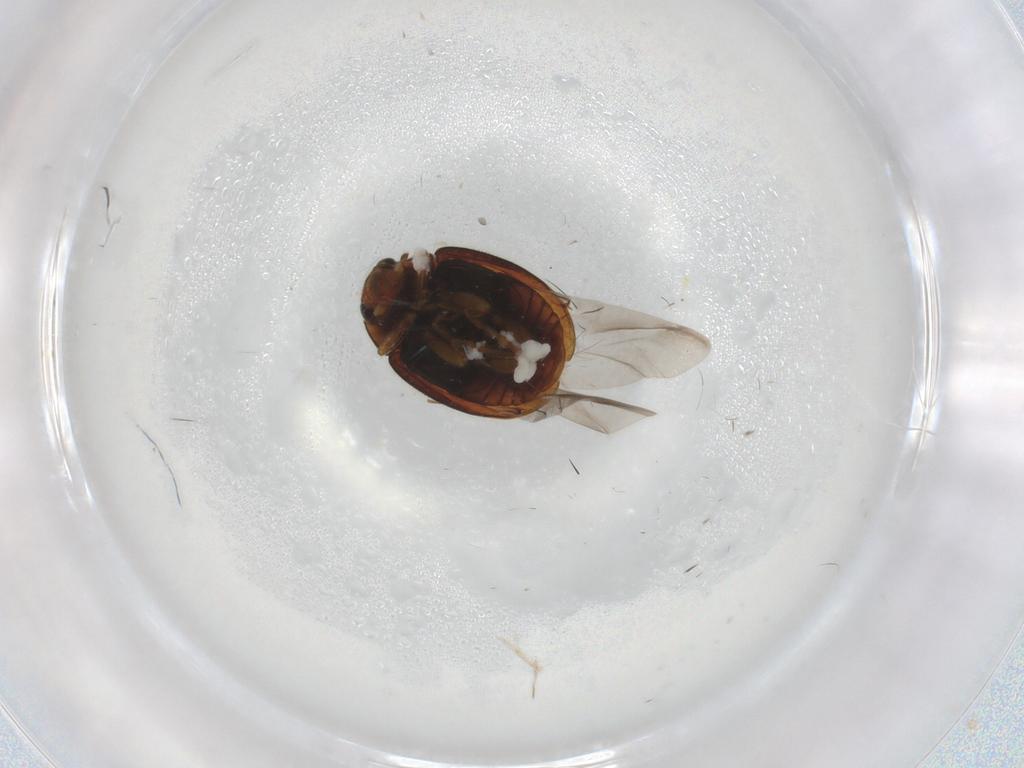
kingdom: Animalia
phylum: Arthropoda
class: Insecta
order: Coleoptera
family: Coccinellidae
